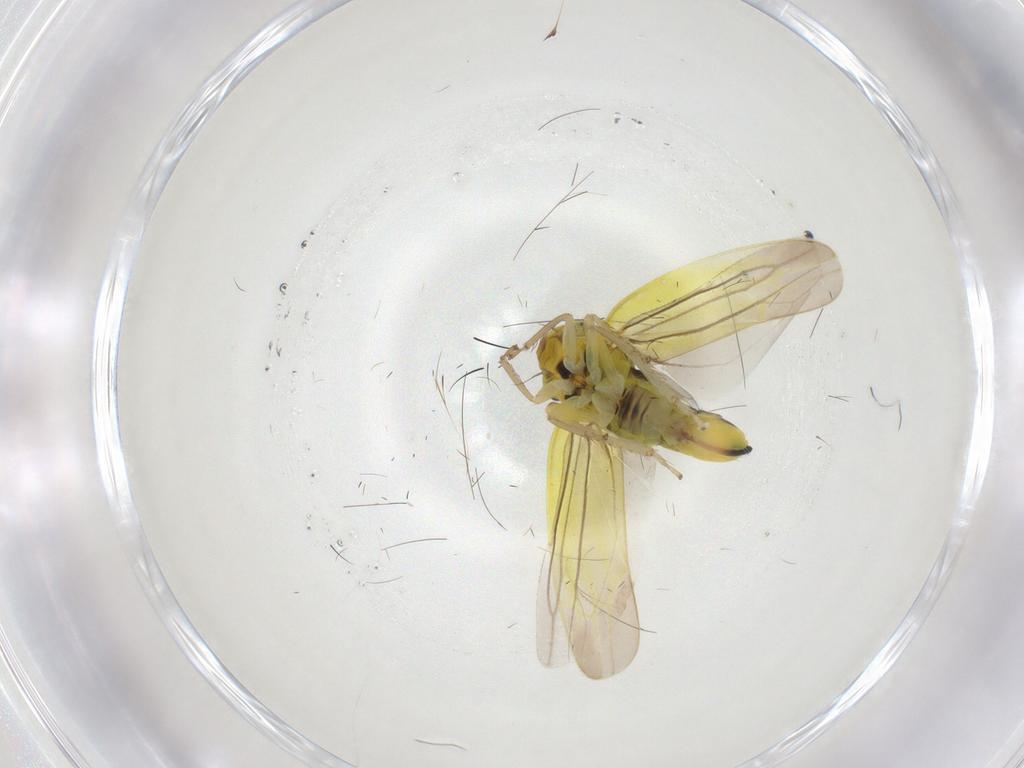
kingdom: Animalia
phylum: Arthropoda
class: Insecta
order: Hemiptera
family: Cicadellidae
